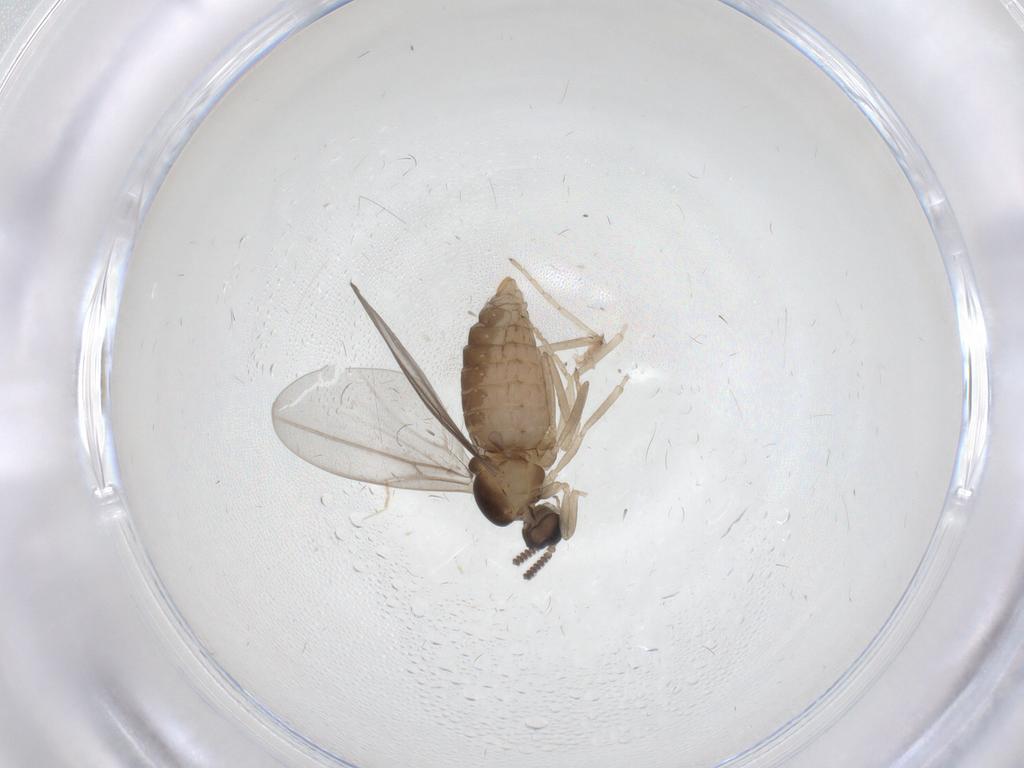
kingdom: Animalia
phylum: Arthropoda
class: Insecta
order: Diptera
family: Cecidomyiidae
